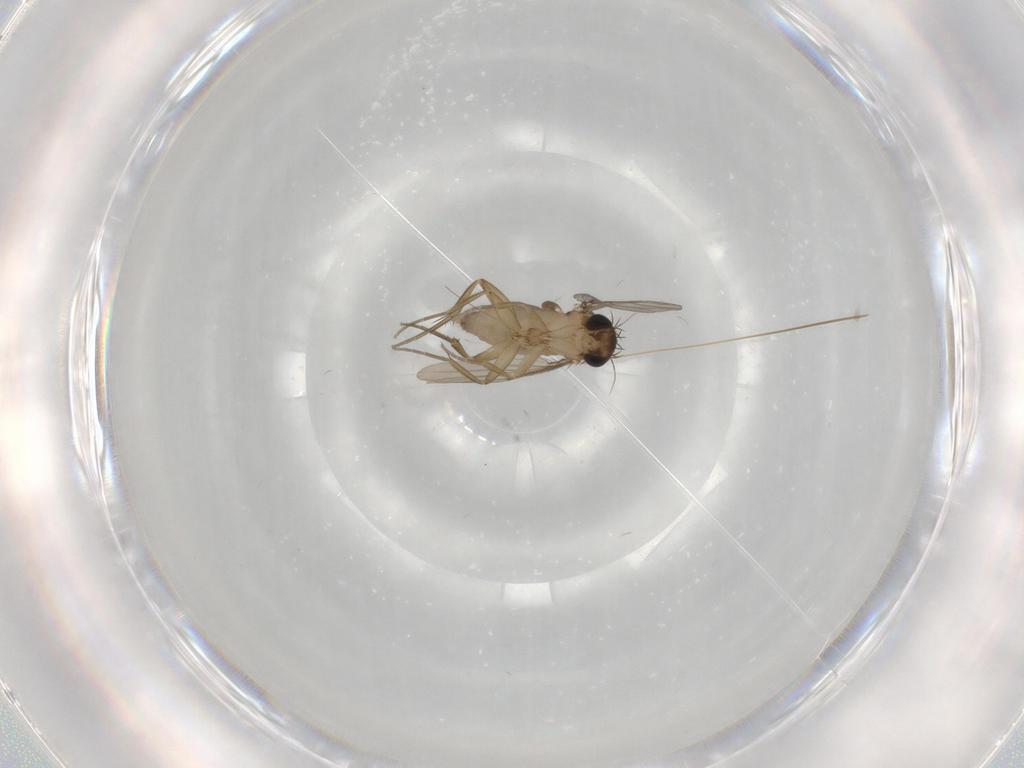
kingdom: Animalia
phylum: Arthropoda
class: Insecta
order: Diptera
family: Phoridae
